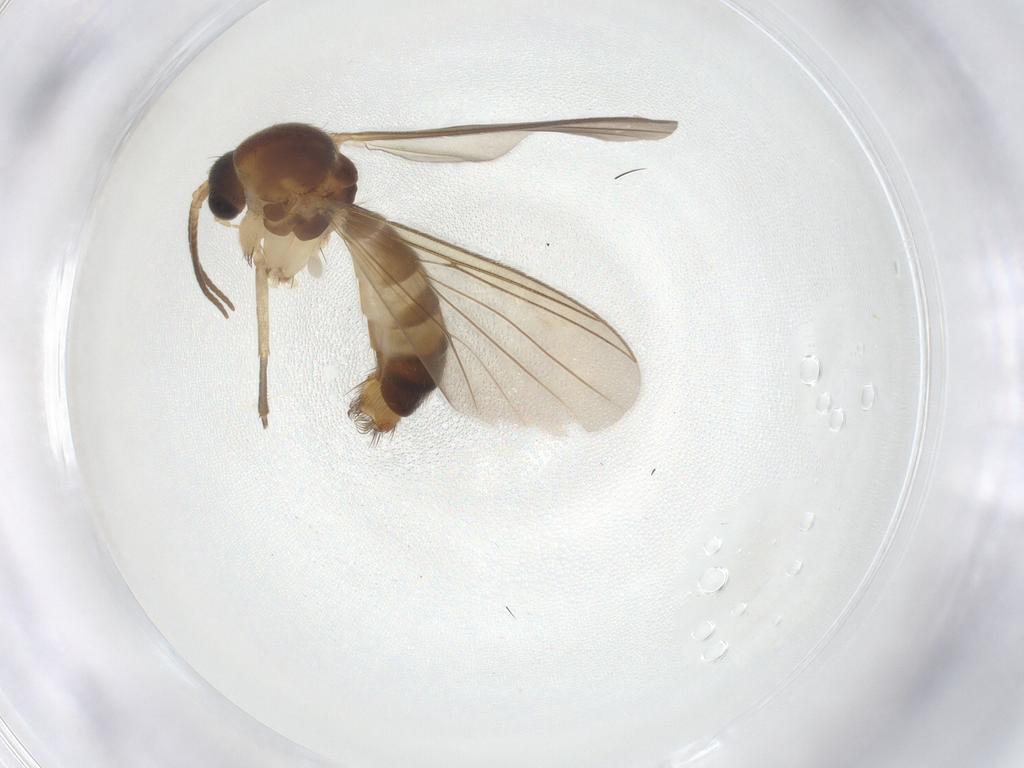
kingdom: Animalia
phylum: Arthropoda
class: Insecta
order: Diptera
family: Mycetophilidae
